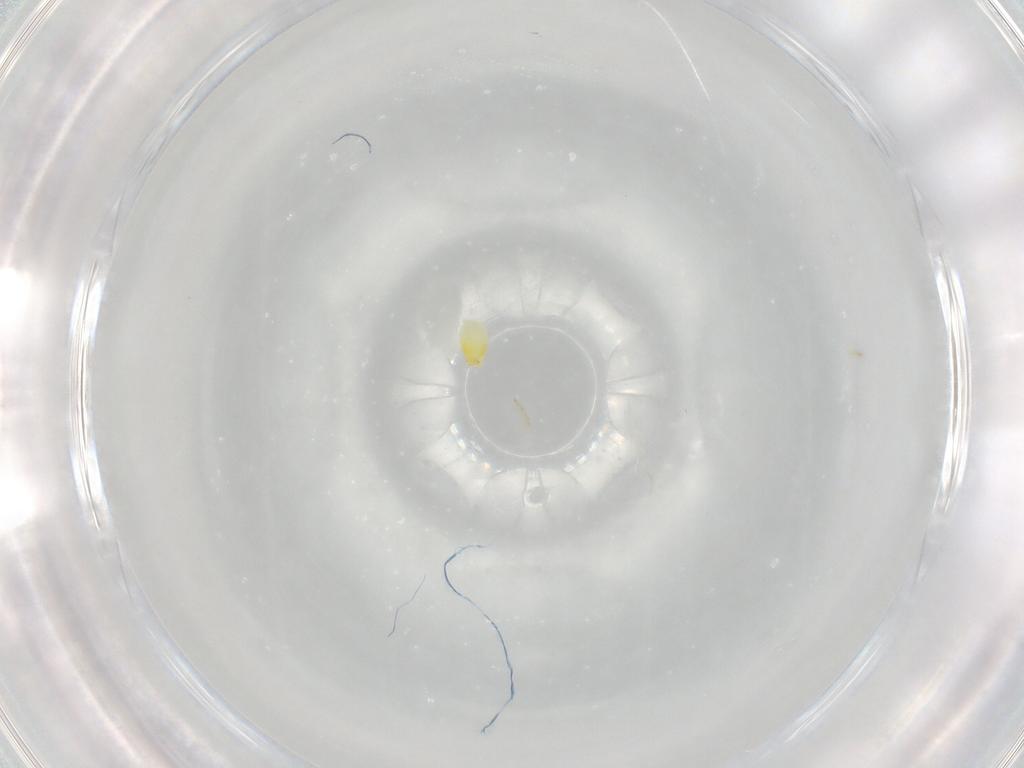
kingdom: Animalia
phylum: Arthropoda
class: Insecta
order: Hemiptera
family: Aleyrodidae
